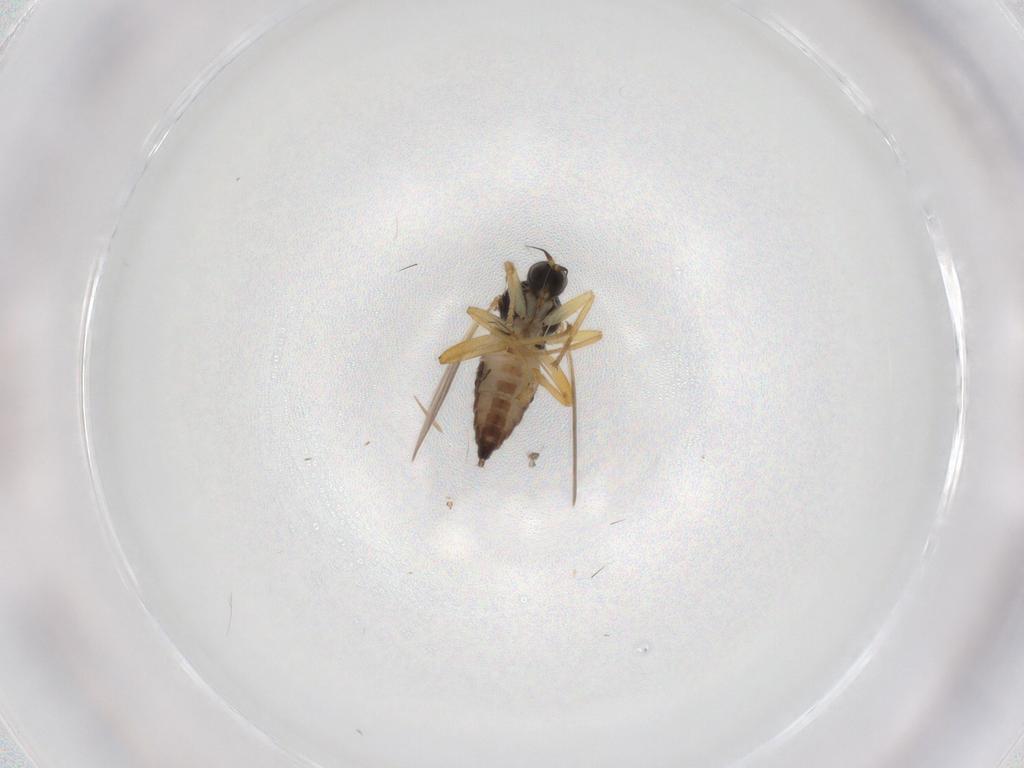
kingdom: Animalia
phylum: Arthropoda
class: Insecta
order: Diptera
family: Hybotidae
